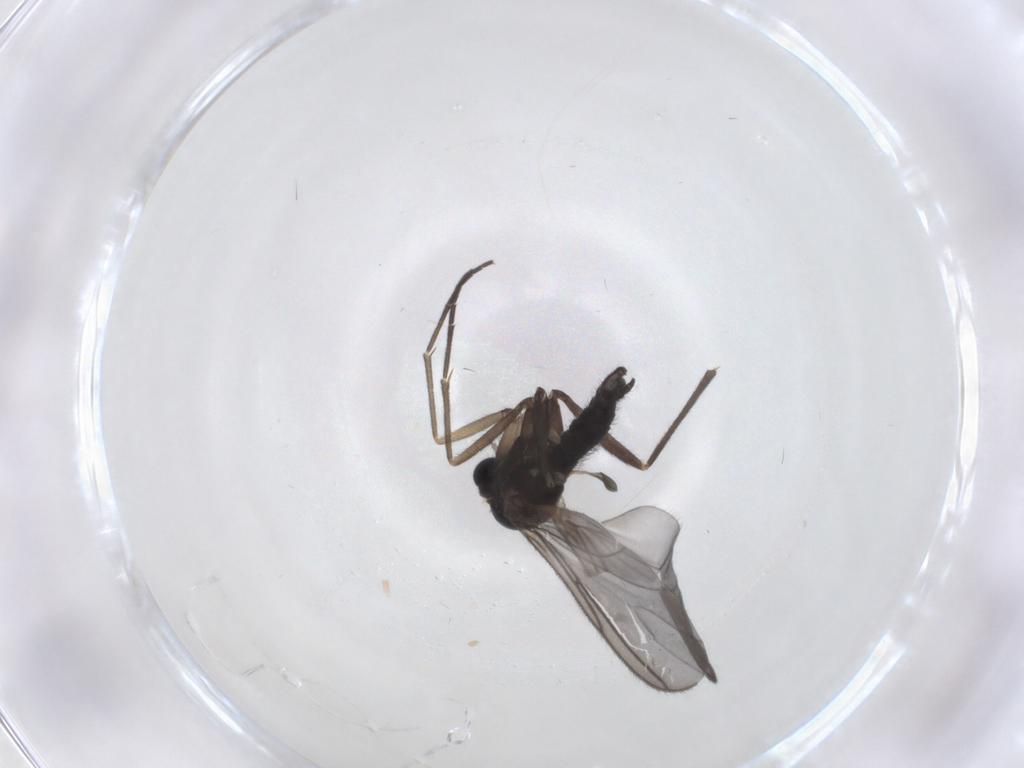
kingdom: Animalia
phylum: Arthropoda
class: Insecta
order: Diptera
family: Sciaridae
